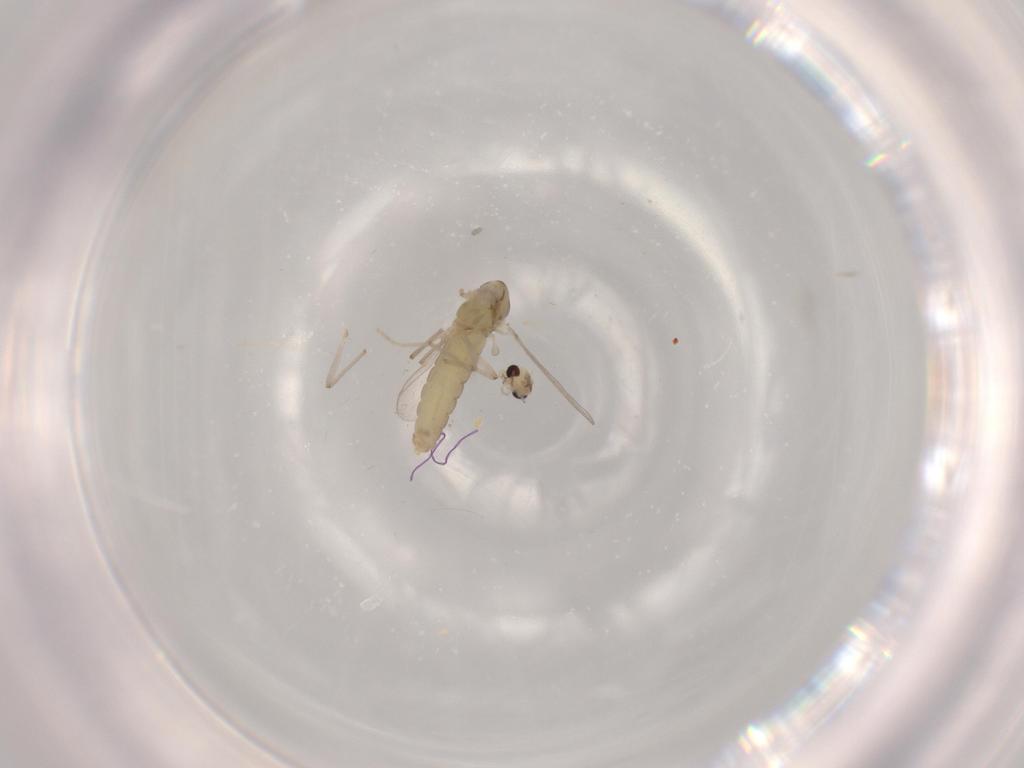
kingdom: Animalia
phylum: Arthropoda
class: Insecta
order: Diptera
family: Chironomidae
